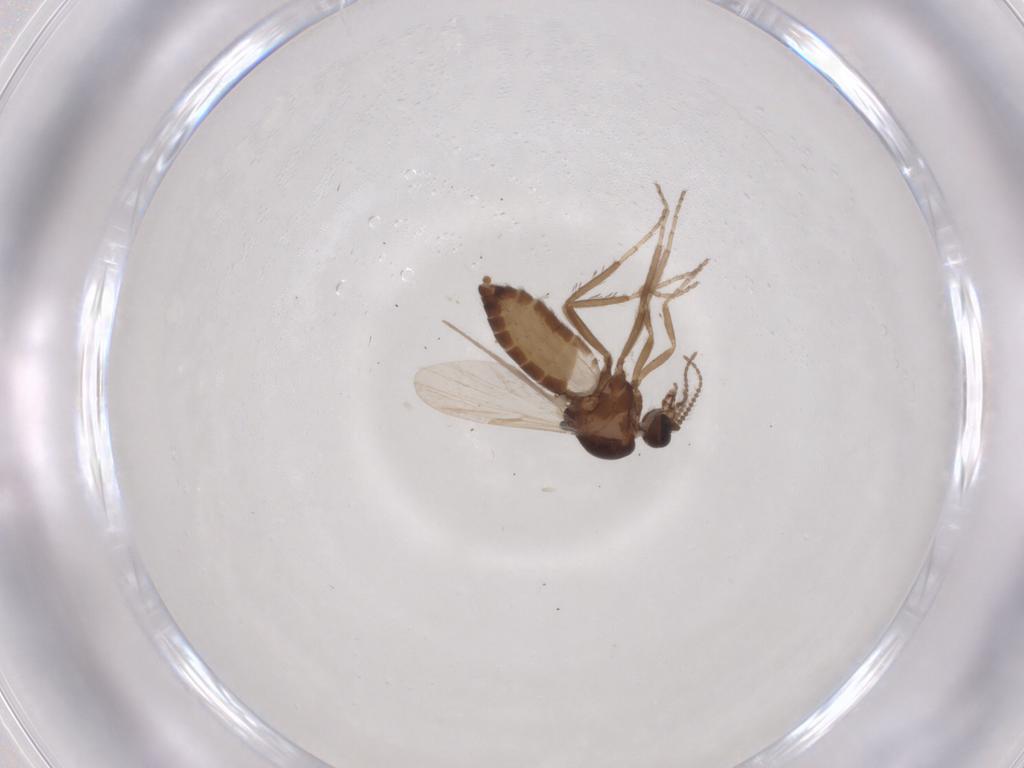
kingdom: Animalia
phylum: Arthropoda
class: Insecta
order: Diptera
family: Ceratopogonidae
